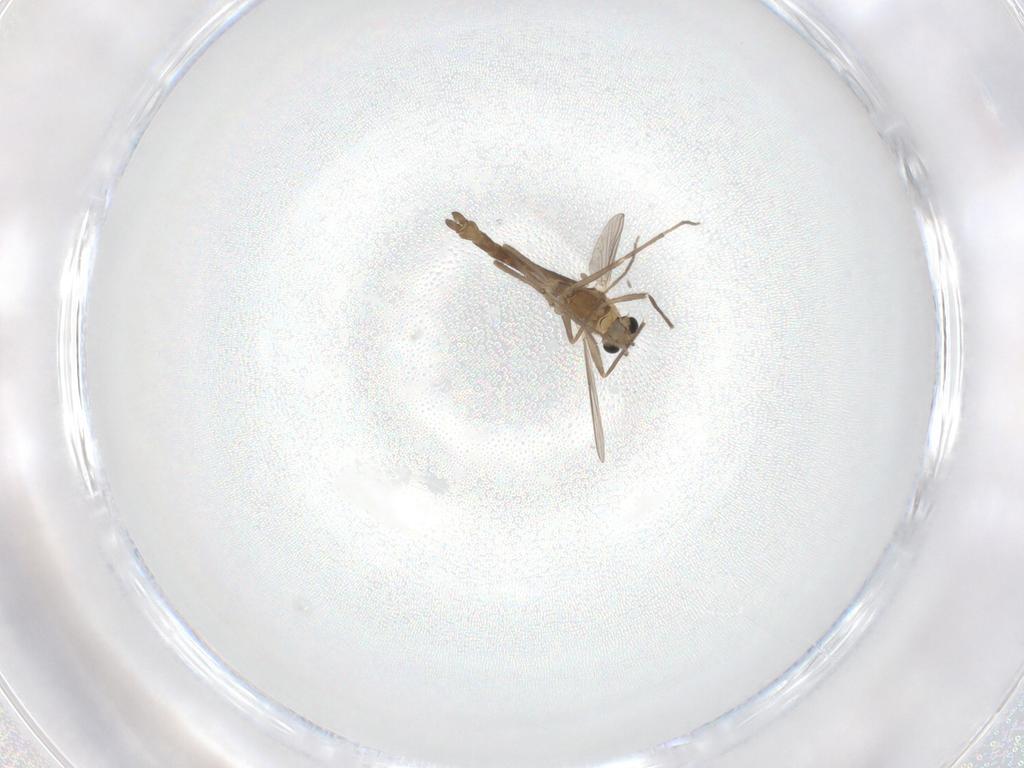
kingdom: Animalia
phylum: Arthropoda
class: Insecta
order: Diptera
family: Chironomidae
